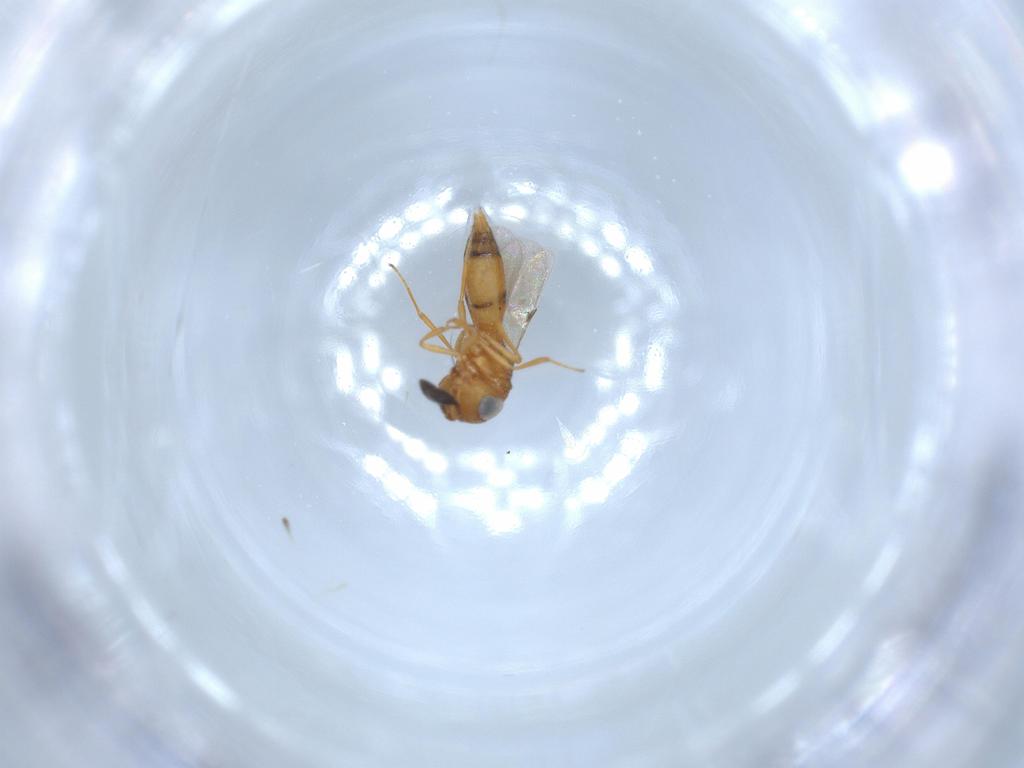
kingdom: Animalia
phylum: Arthropoda
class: Insecta
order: Hymenoptera
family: Scelionidae
